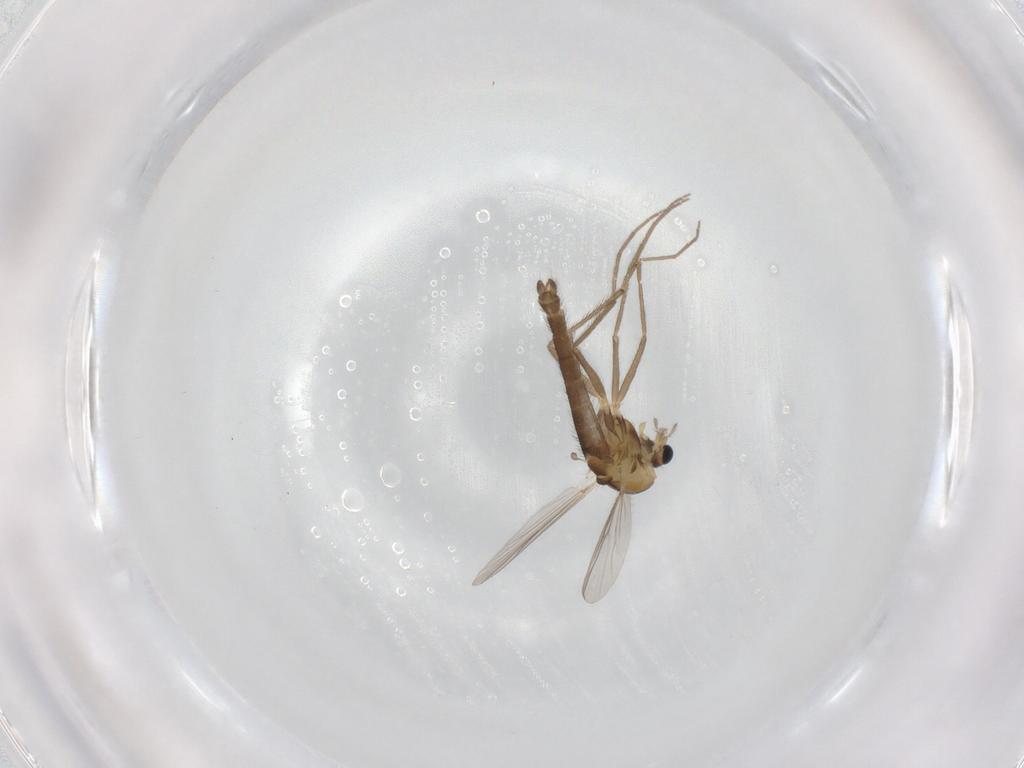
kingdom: Animalia
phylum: Arthropoda
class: Insecta
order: Diptera
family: Chironomidae
